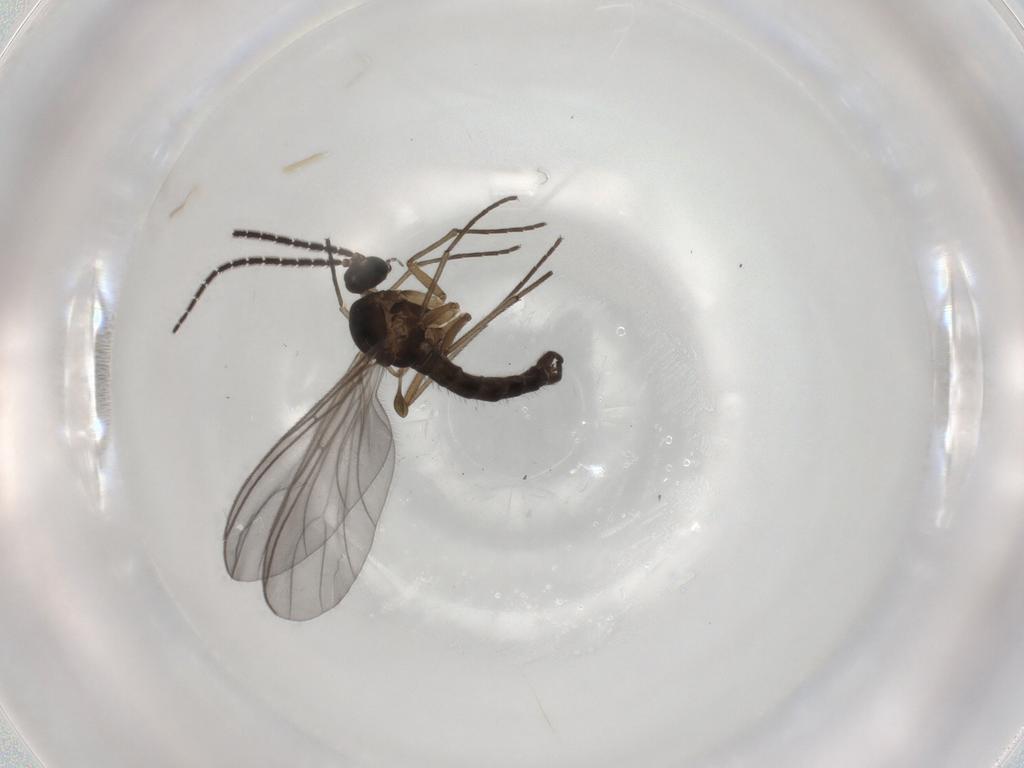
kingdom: Animalia
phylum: Arthropoda
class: Insecta
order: Diptera
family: Cecidomyiidae
